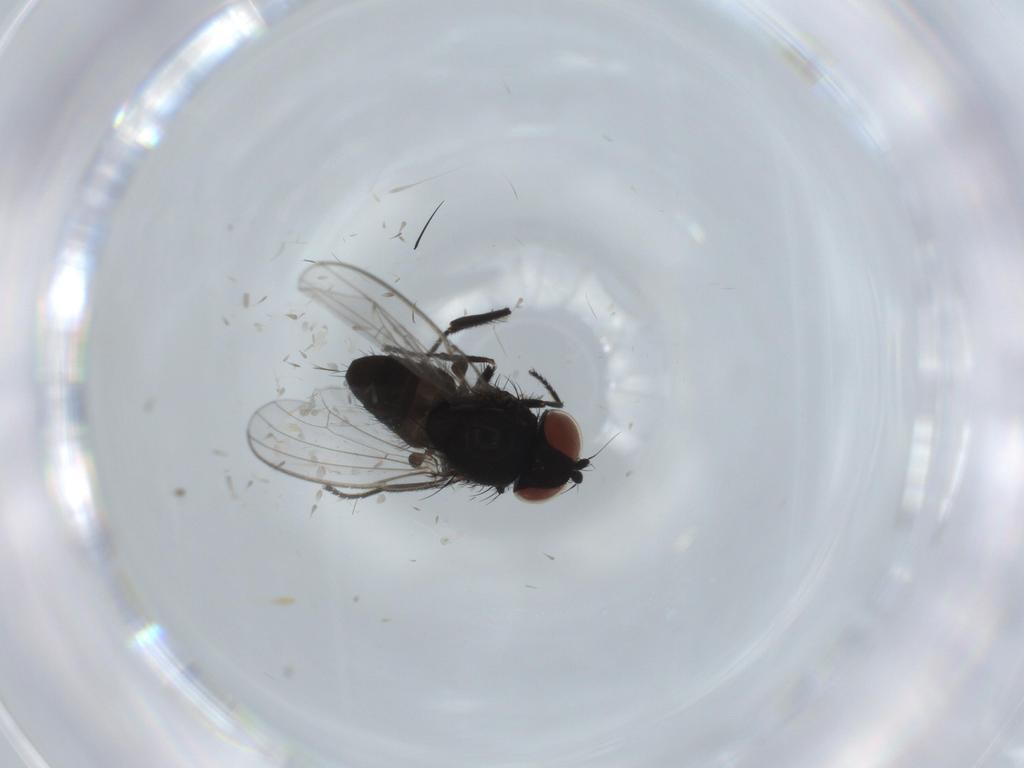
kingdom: Animalia
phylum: Arthropoda
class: Insecta
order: Diptera
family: Milichiidae
